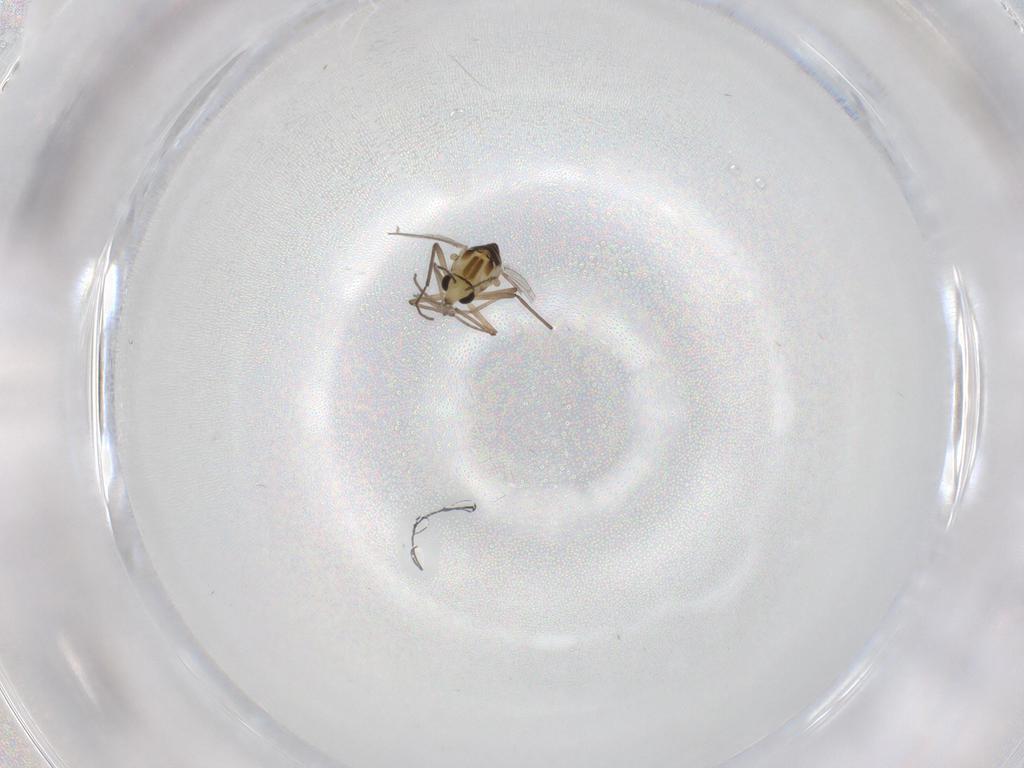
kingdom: Animalia
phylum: Arthropoda
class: Insecta
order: Diptera
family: Chironomidae
